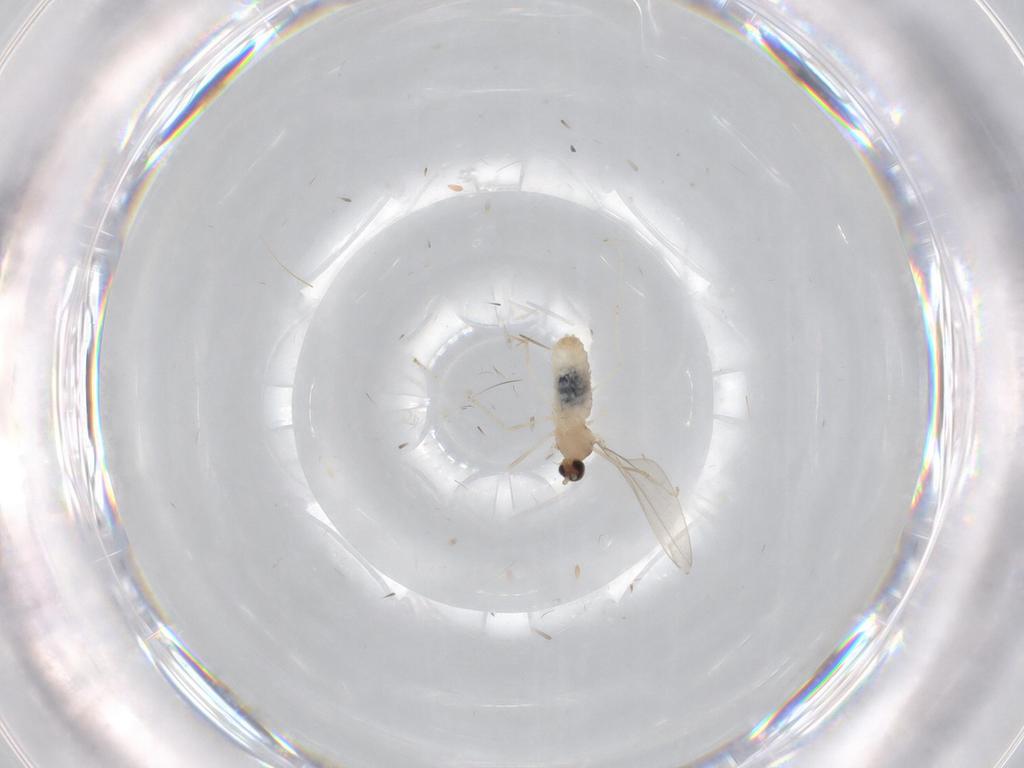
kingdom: Animalia
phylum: Arthropoda
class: Insecta
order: Diptera
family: Cecidomyiidae
